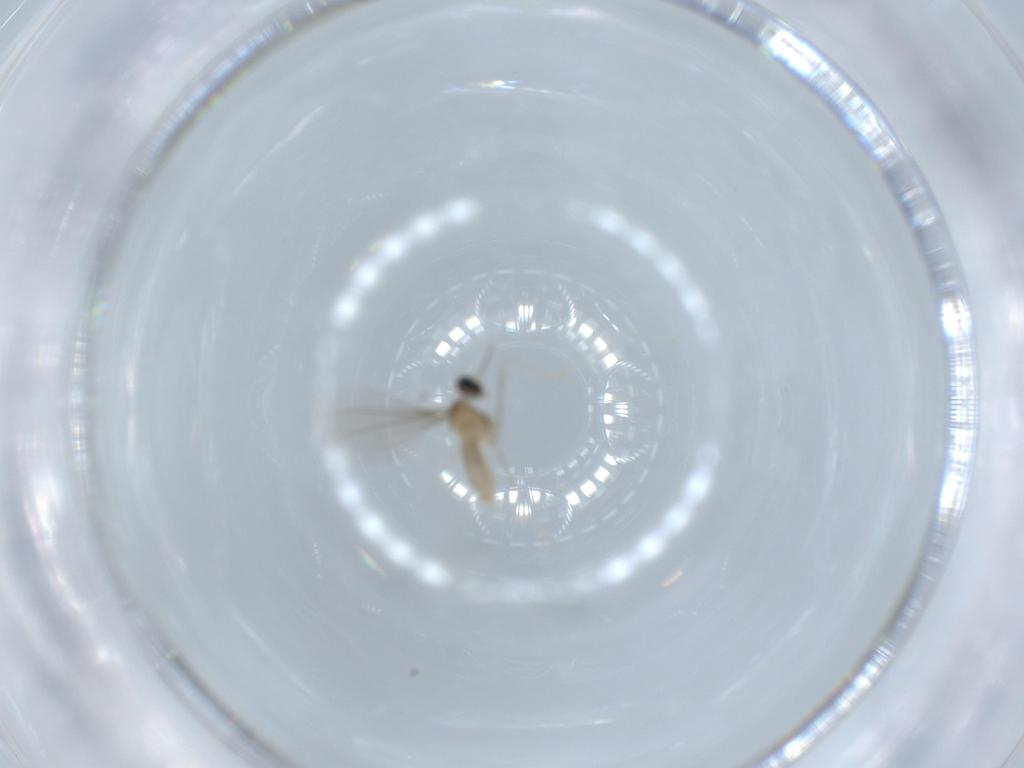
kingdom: Animalia
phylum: Arthropoda
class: Insecta
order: Diptera
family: Cecidomyiidae
